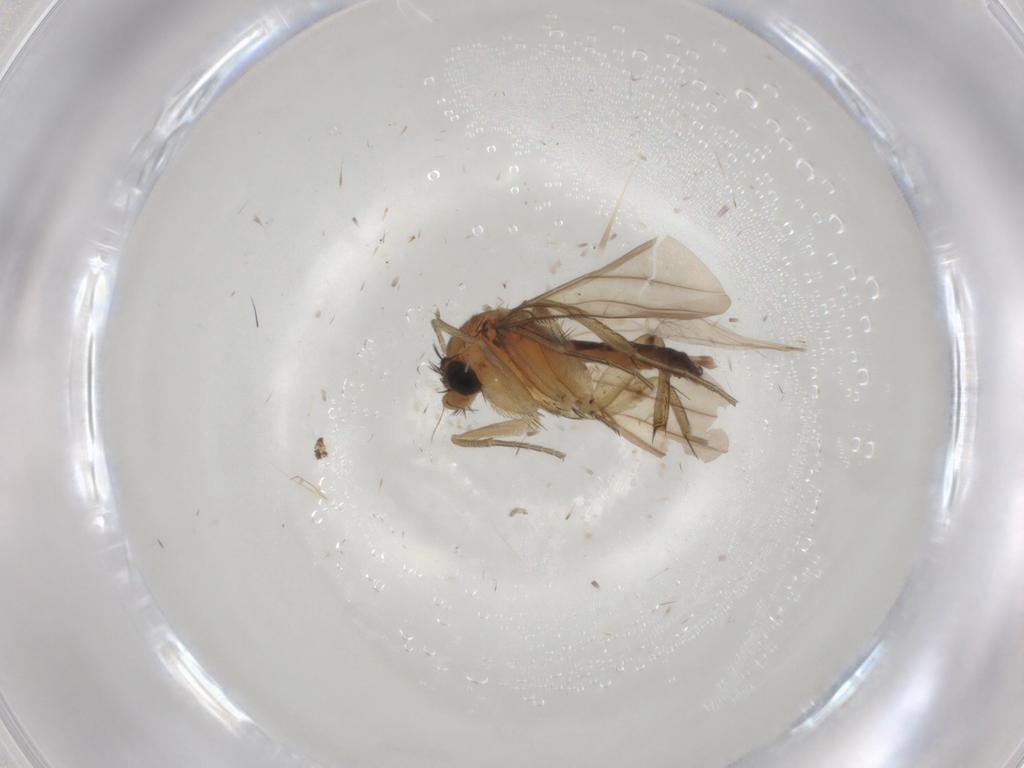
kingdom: Animalia
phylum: Arthropoda
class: Insecta
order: Diptera
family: Phoridae
